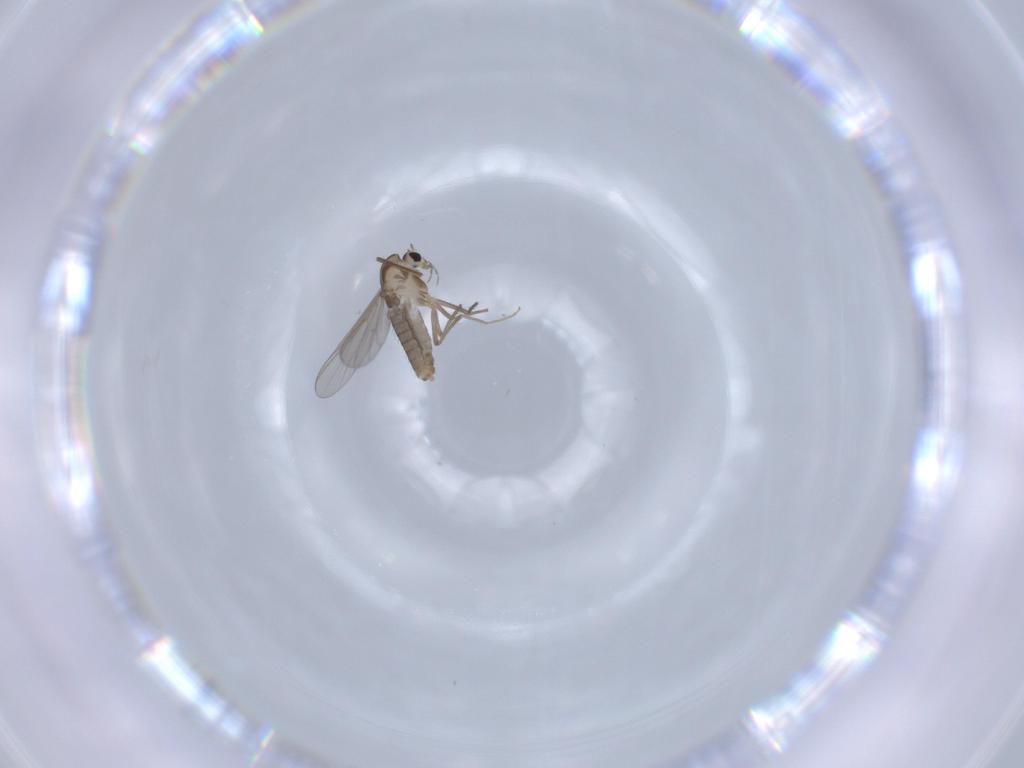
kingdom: Animalia
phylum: Arthropoda
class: Insecta
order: Diptera
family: Chironomidae
